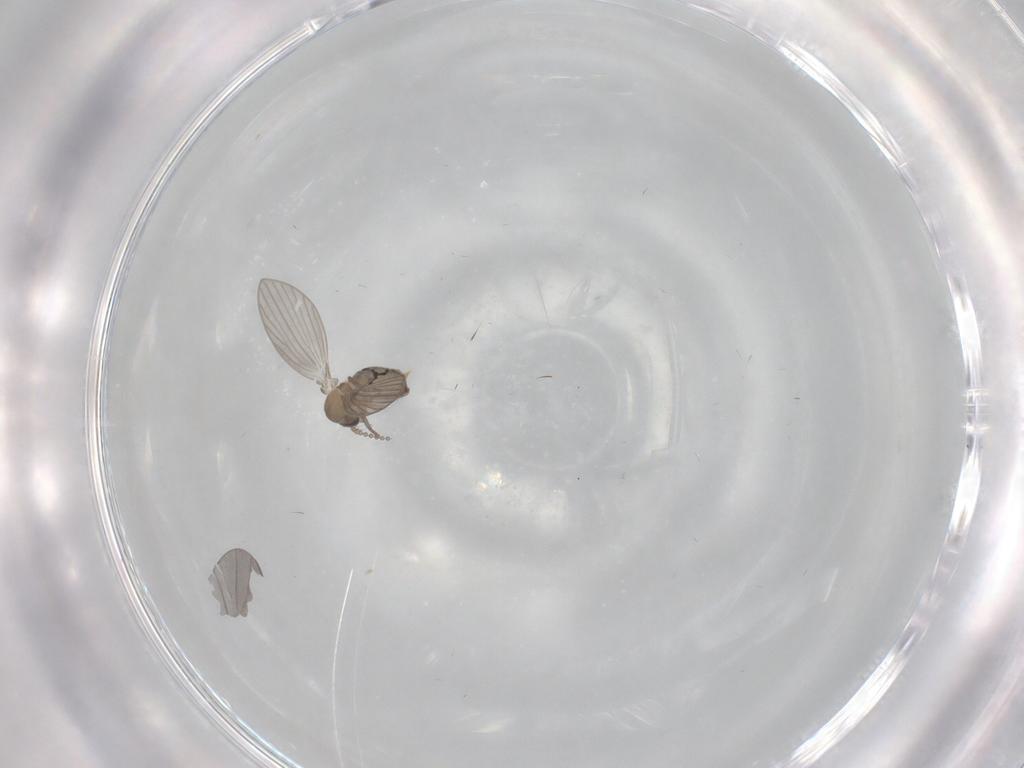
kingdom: Animalia
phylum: Arthropoda
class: Insecta
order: Diptera
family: Psychodidae
